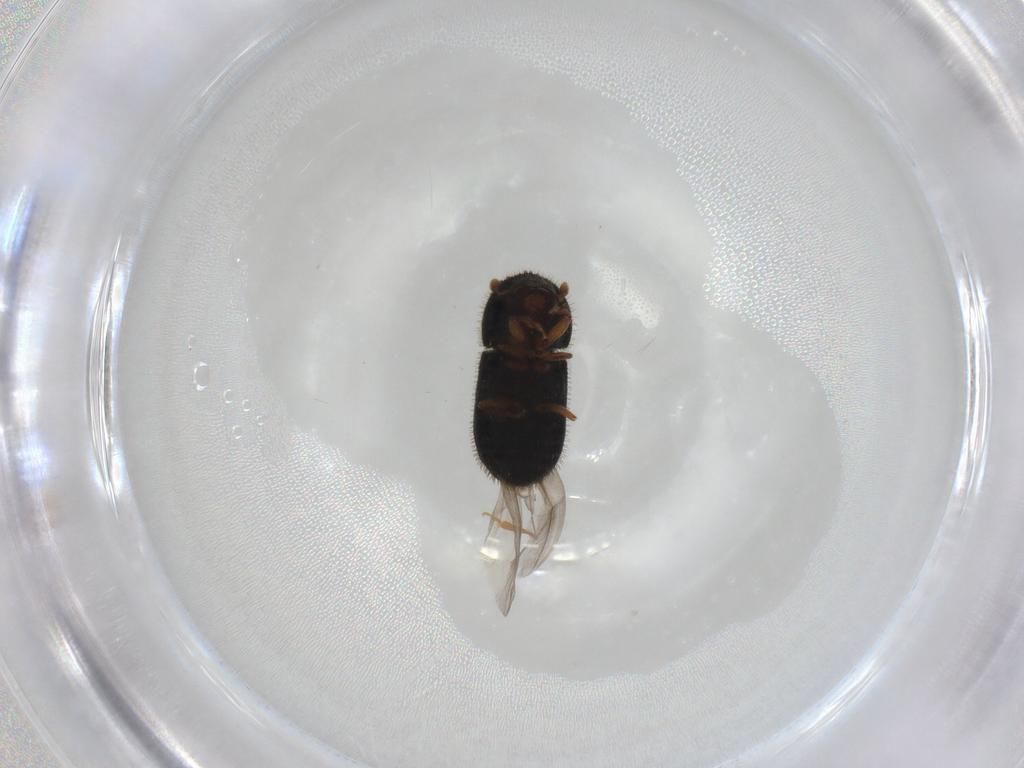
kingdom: Animalia
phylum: Arthropoda
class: Insecta
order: Coleoptera
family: Curculionidae
